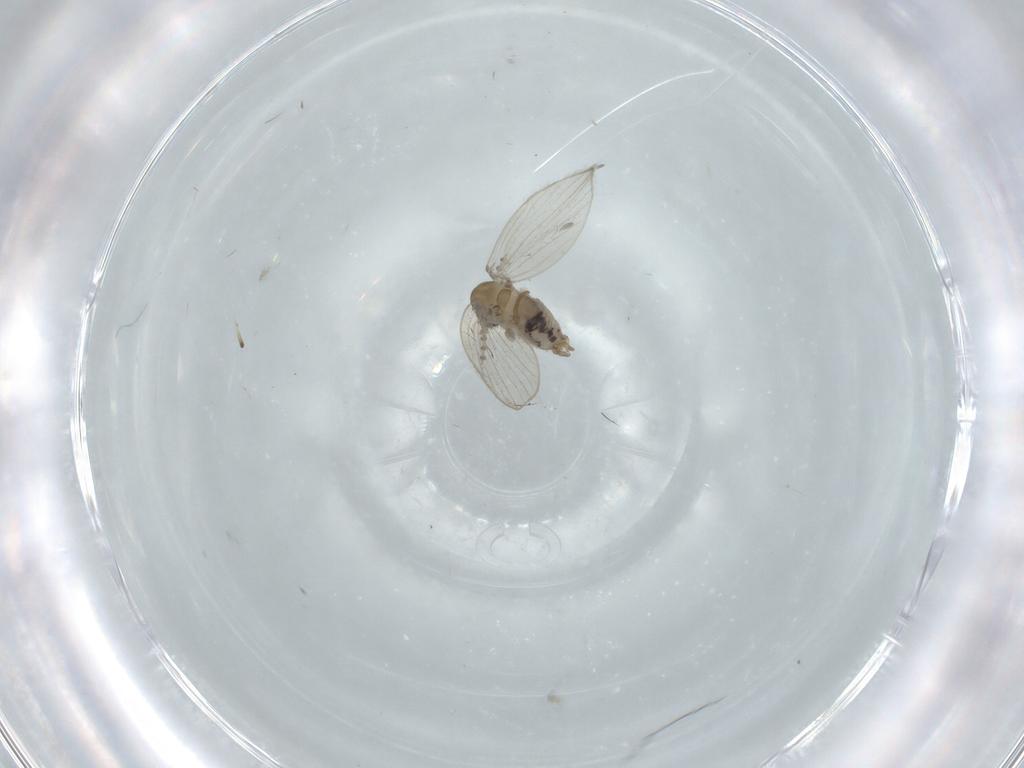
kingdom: Animalia
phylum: Arthropoda
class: Insecta
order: Diptera
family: Psychodidae
